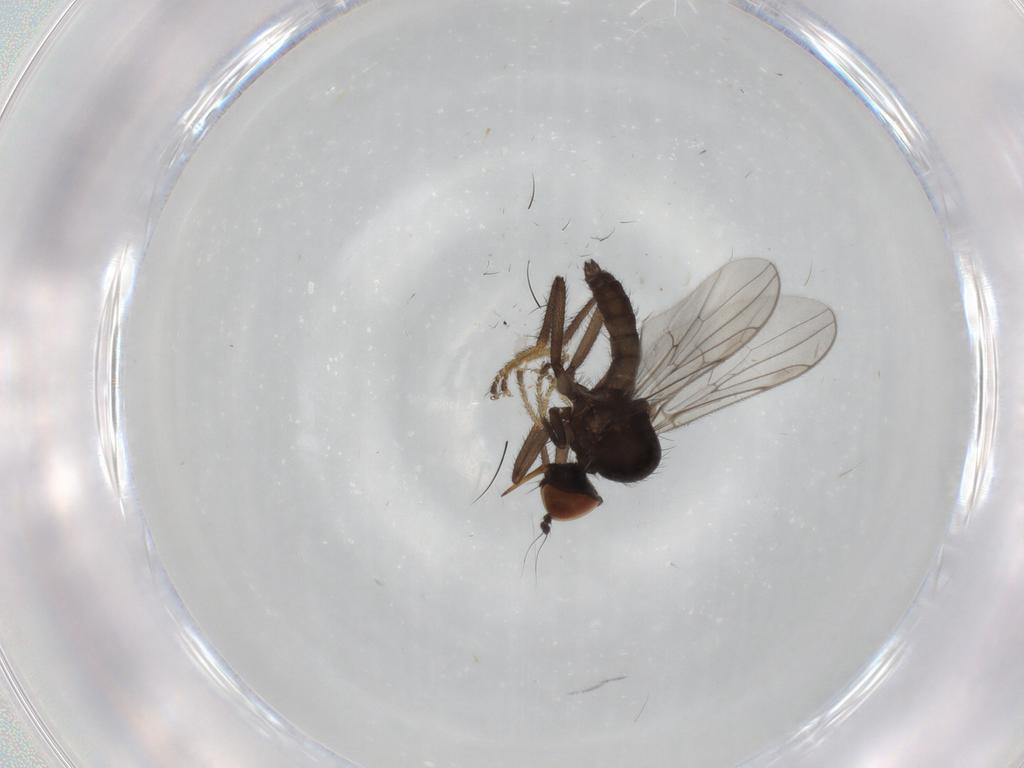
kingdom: Animalia
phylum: Arthropoda
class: Insecta
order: Diptera
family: Hybotidae
